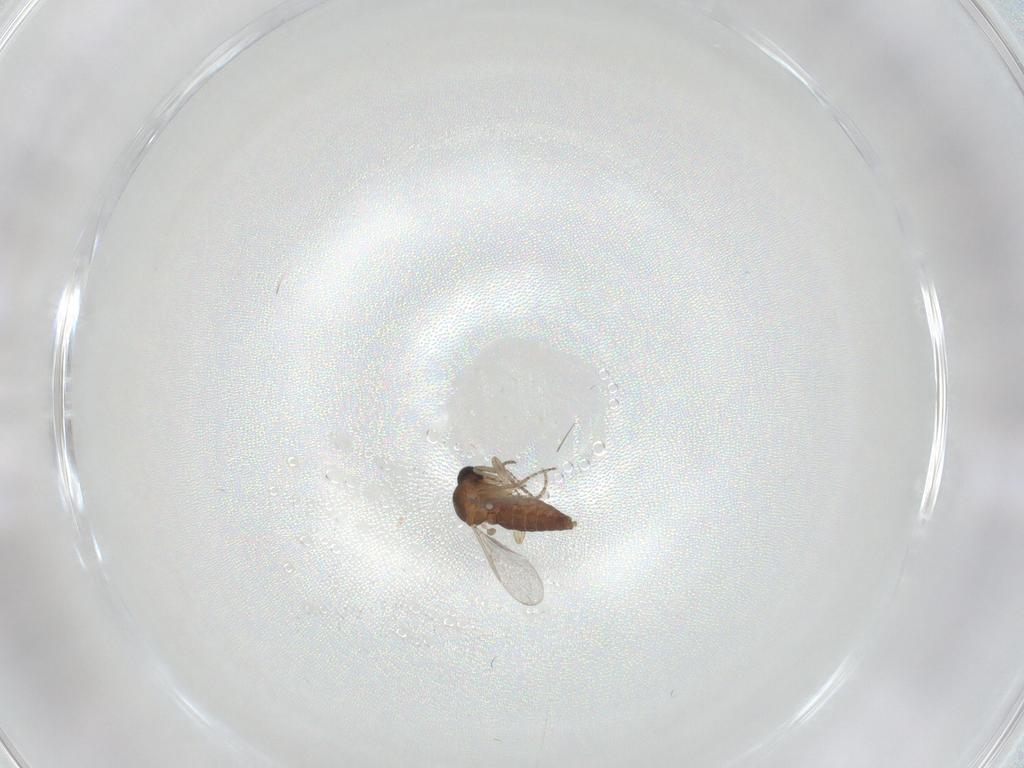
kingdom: Animalia
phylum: Arthropoda
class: Insecta
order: Diptera
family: Ceratopogonidae
